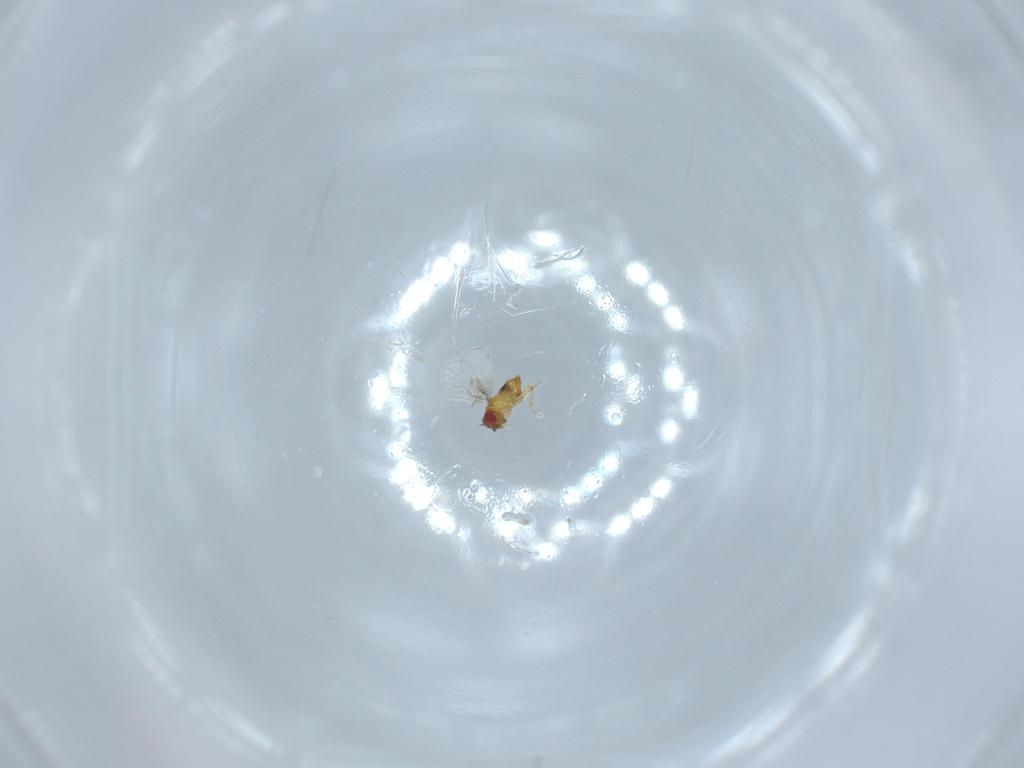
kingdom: Animalia
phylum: Arthropoda
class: Insecta
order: Hymenoptera
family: Trichogrammatidae
